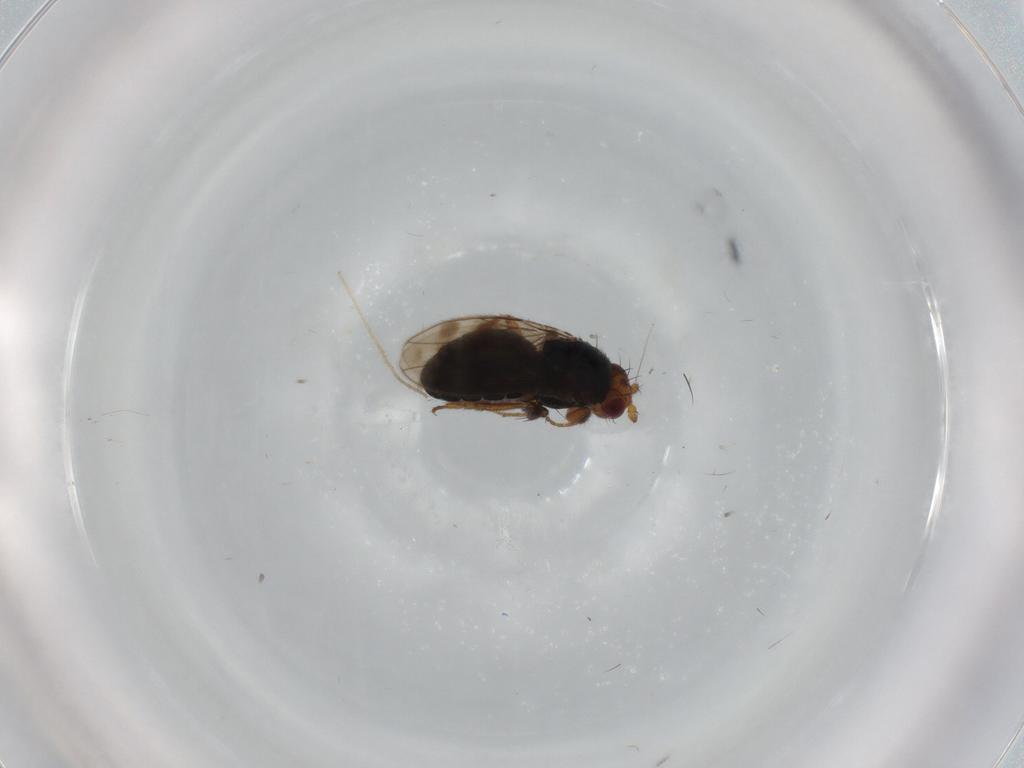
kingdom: Animalia
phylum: Arthropoda
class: Insecta
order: Diptera
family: Sphaeroceridae
